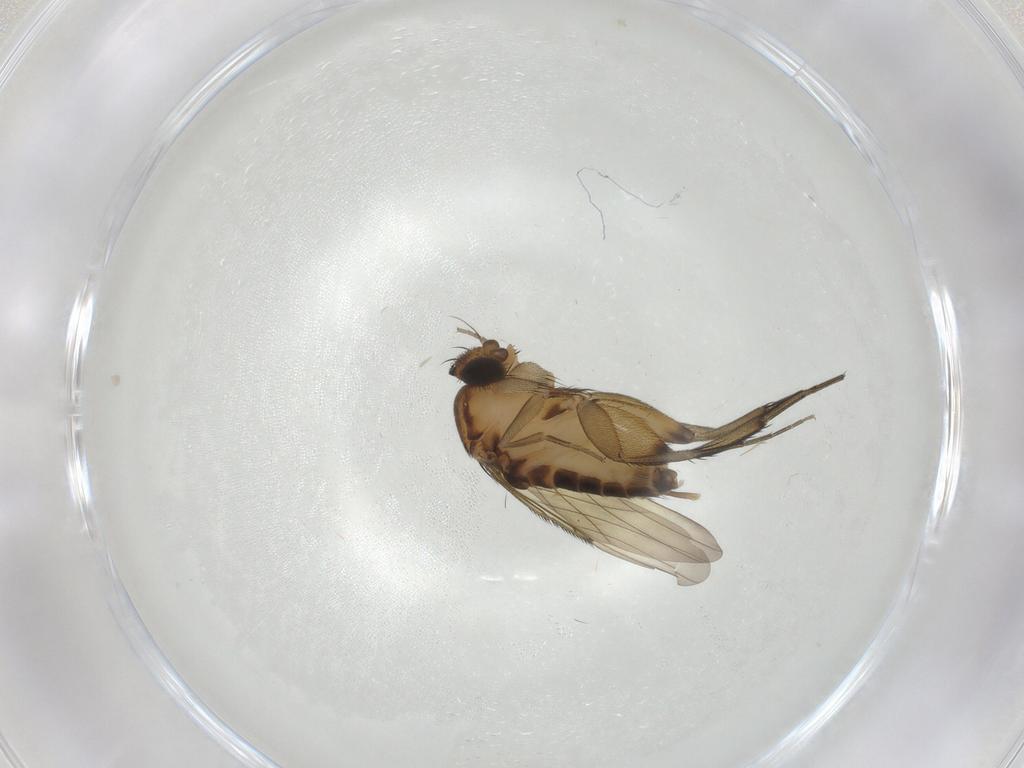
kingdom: Animalia
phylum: Arthropoda
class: Insecta
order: Diptera
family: Phoridae
